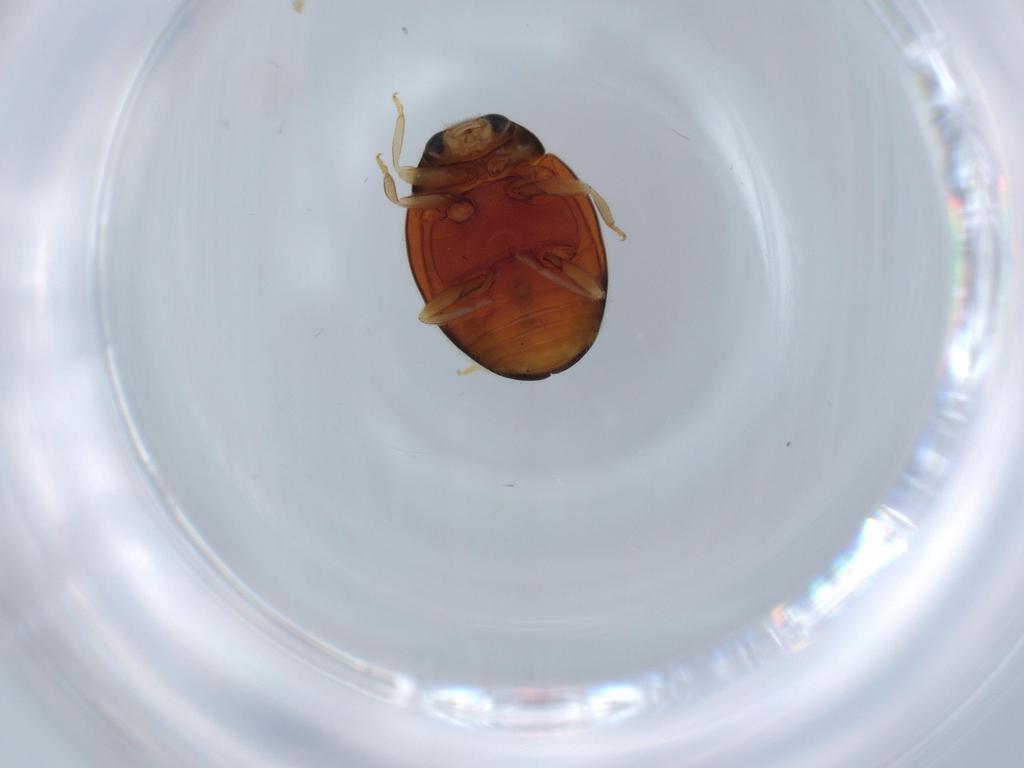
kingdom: Animalia
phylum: Arthropoda
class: Insecta
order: Coleoptera
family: Coccinellidae
